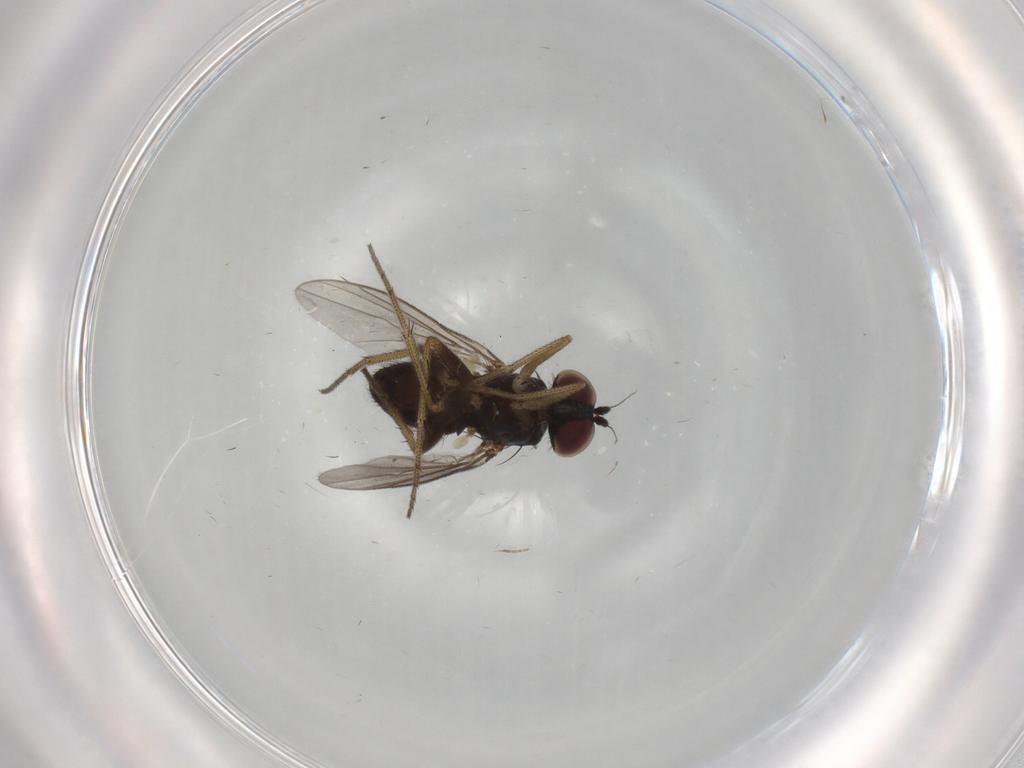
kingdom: Animalia
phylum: Arthropoda
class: Insecta
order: Diptera
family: Dolichopodidae
